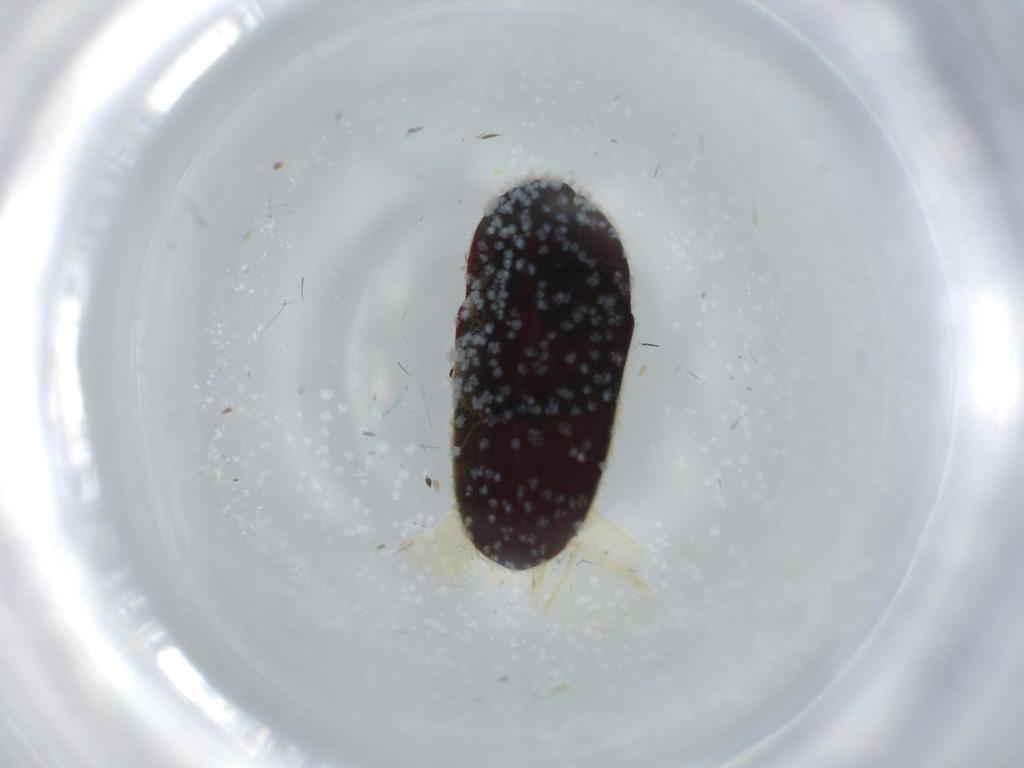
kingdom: Animalia
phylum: Arthropoda
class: Insecta
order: Coleoptera
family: Throscidae
